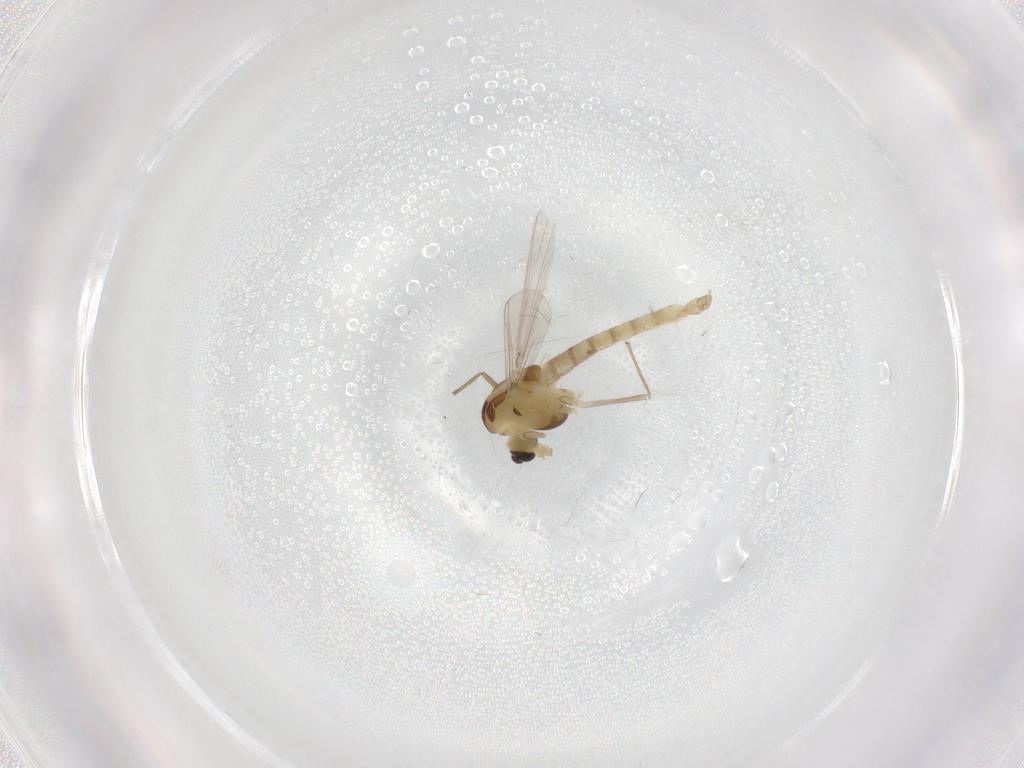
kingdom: Animalia
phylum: Arthropoda
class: Insecta
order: Diptera
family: Chironomidae
